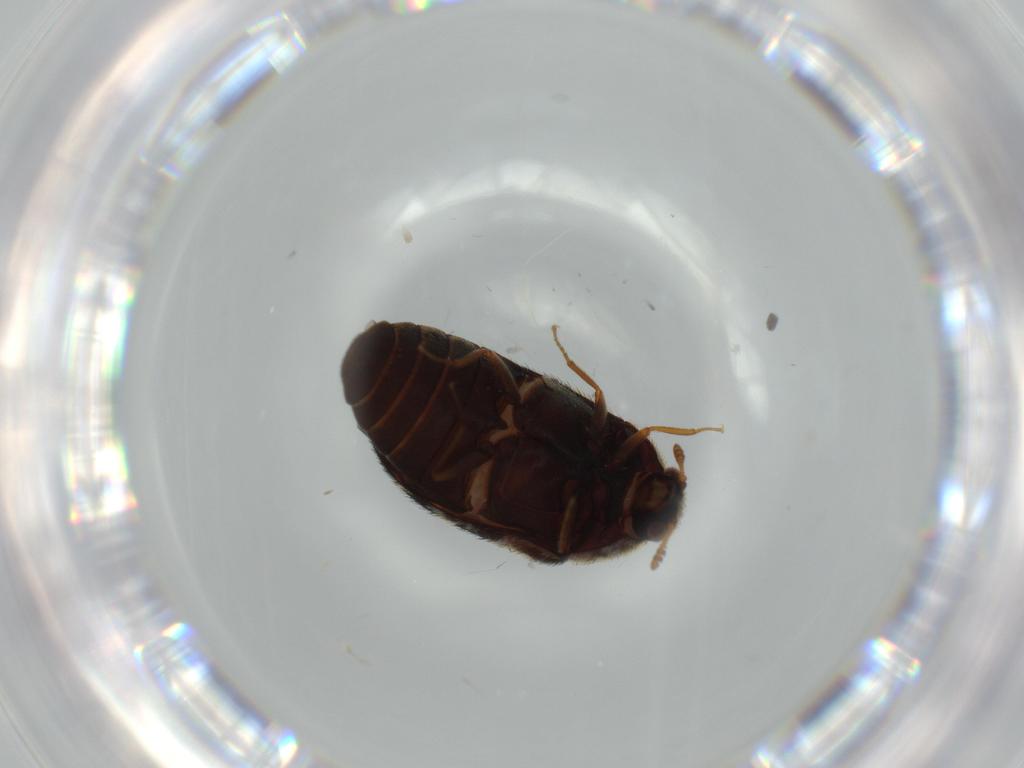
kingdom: Animalia
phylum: Arthropoda
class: Insecta
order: Coleoptera
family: Dermestidae
